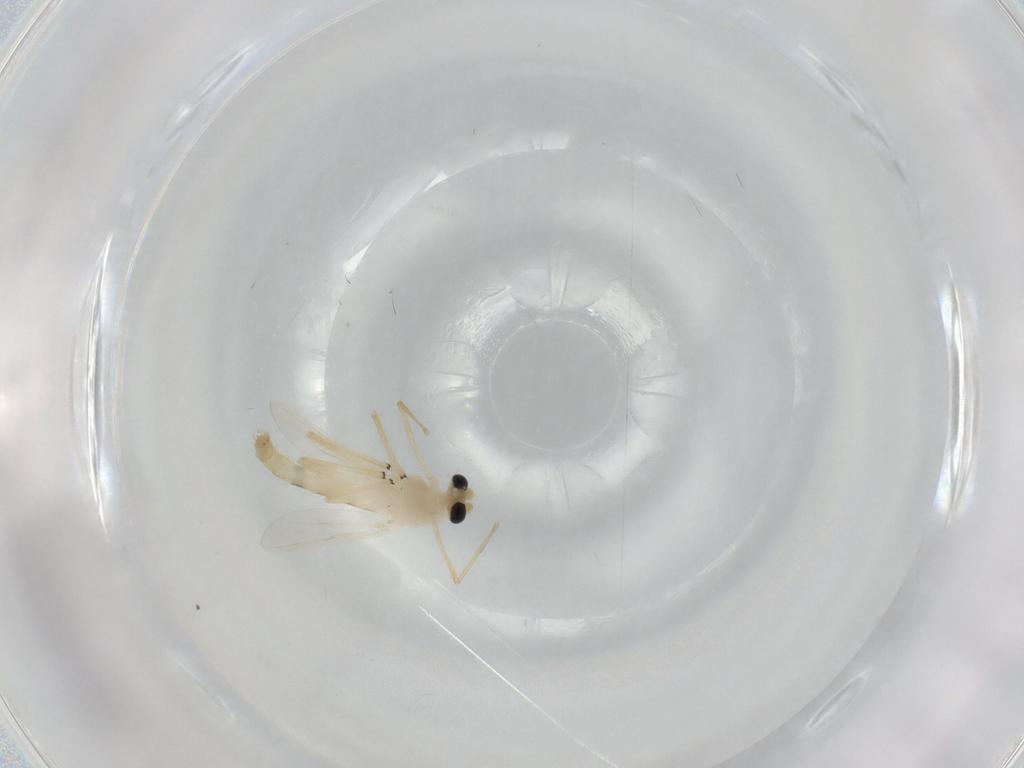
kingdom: Animalia
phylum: Arthropoda
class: Insecta
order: Diptera
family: Micropezidae
